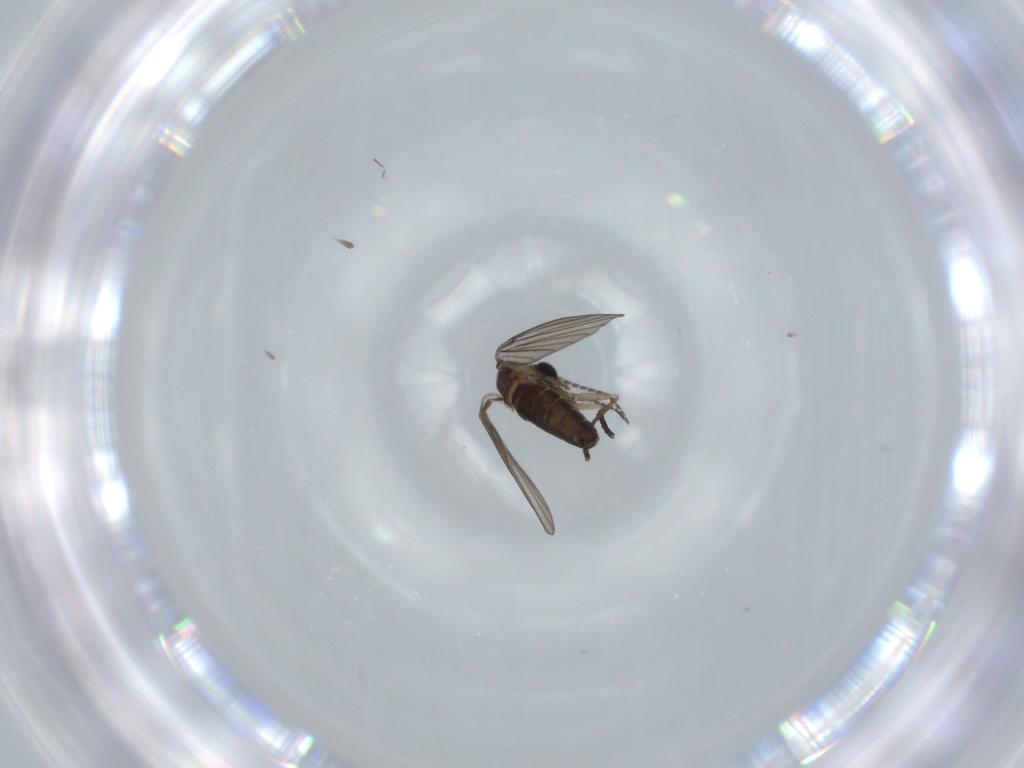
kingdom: Animalia
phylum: Arthropoda
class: Insecta
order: Diptera
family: Psychodidae
